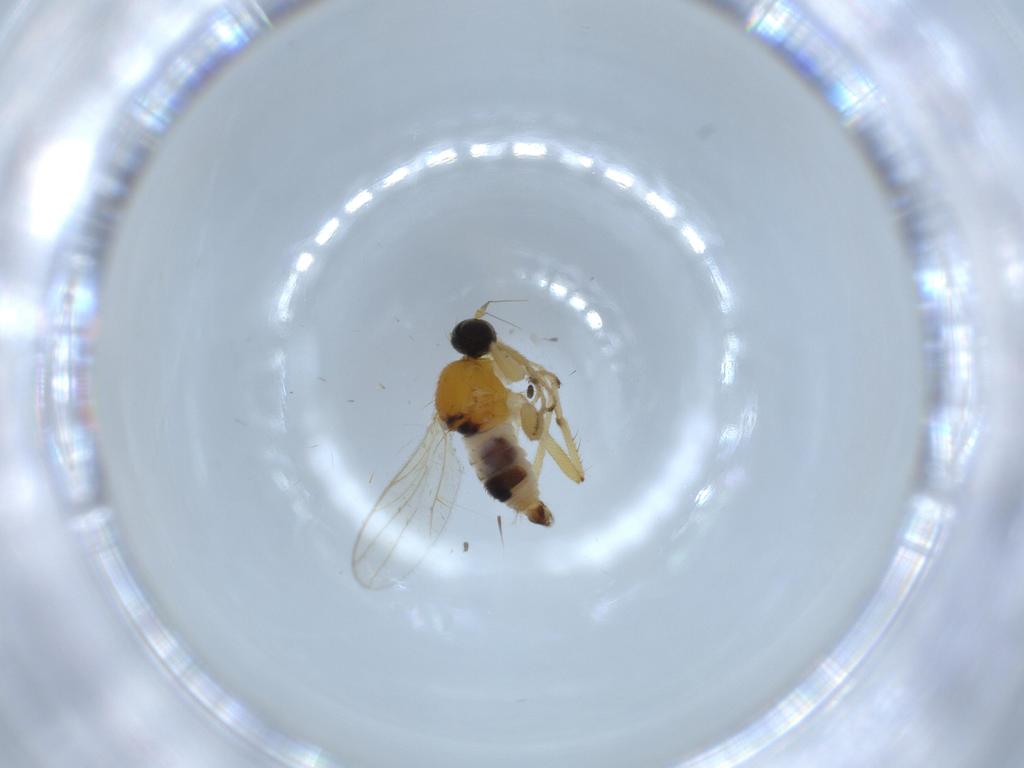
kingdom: Animalia
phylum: Arthropoda
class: Insecta
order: Diptera
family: Hybotidae
